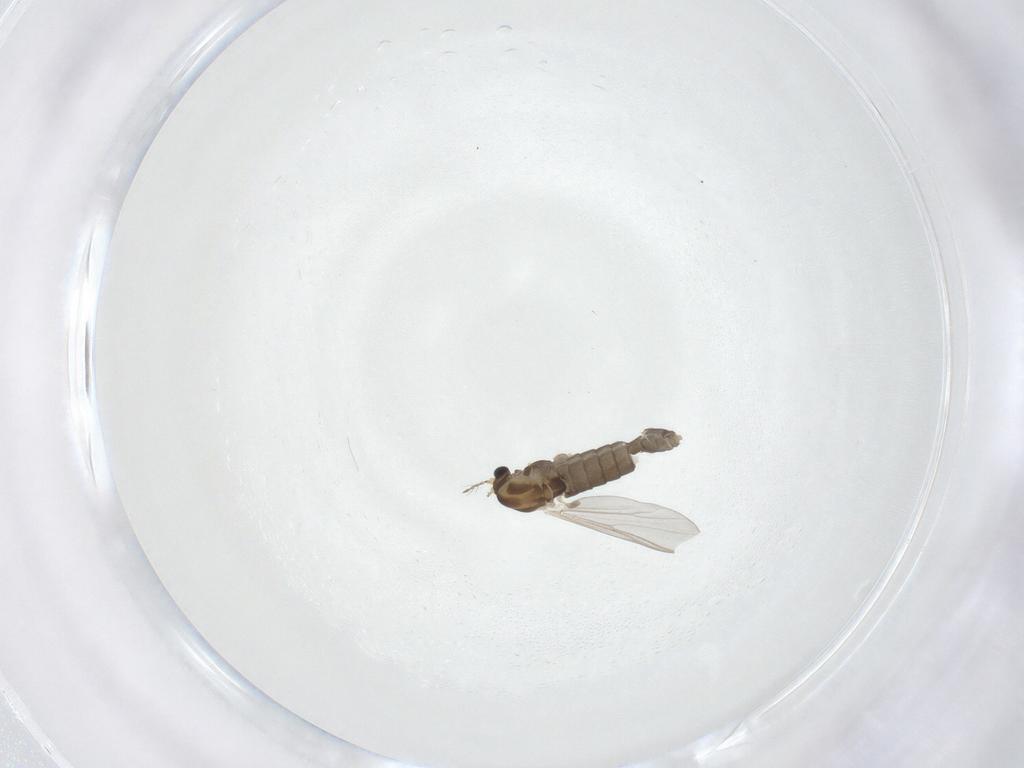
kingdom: Animalia
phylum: Arthropoda
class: Insecta
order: Diptera
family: Chironomidae
